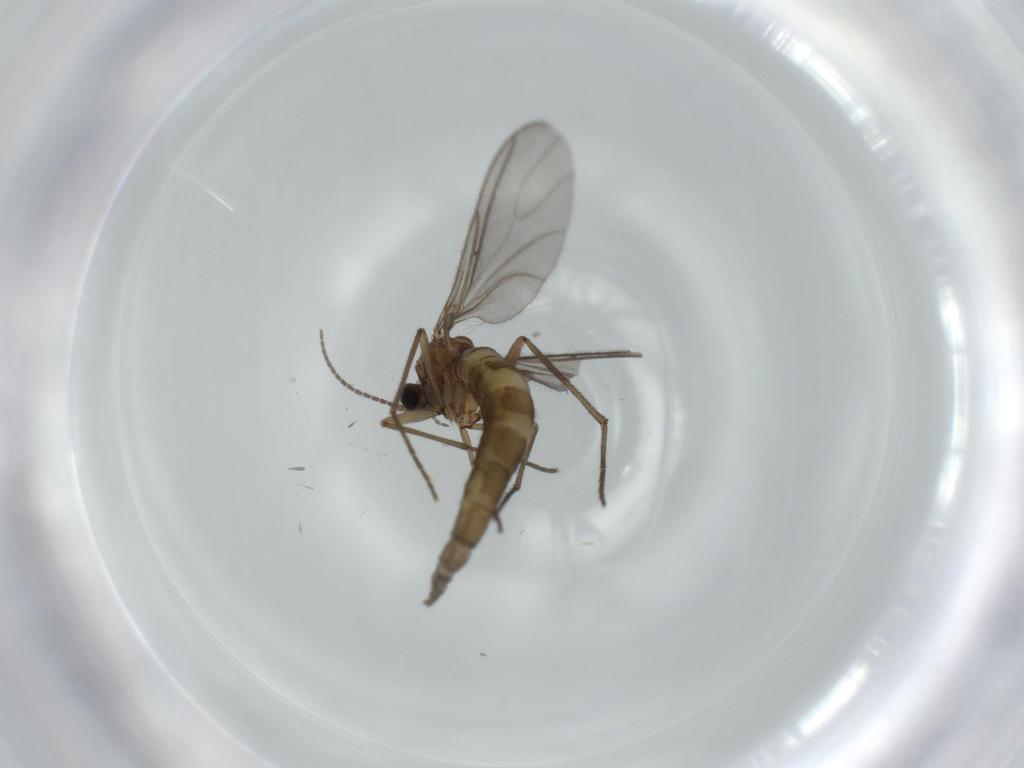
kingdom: Animalia
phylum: Arthropoda
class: Insecta
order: Diptera
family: Sciaridae
